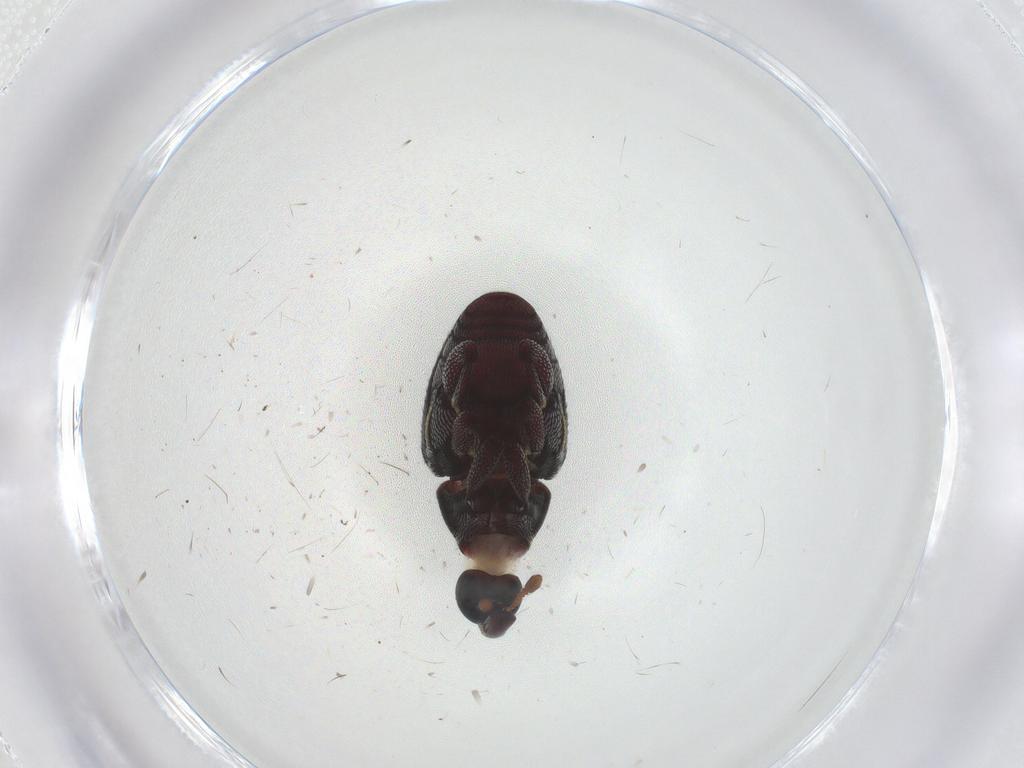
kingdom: Animalia
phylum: Arthropoda
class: Insecta
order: Coleoptera
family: Curculionidae
